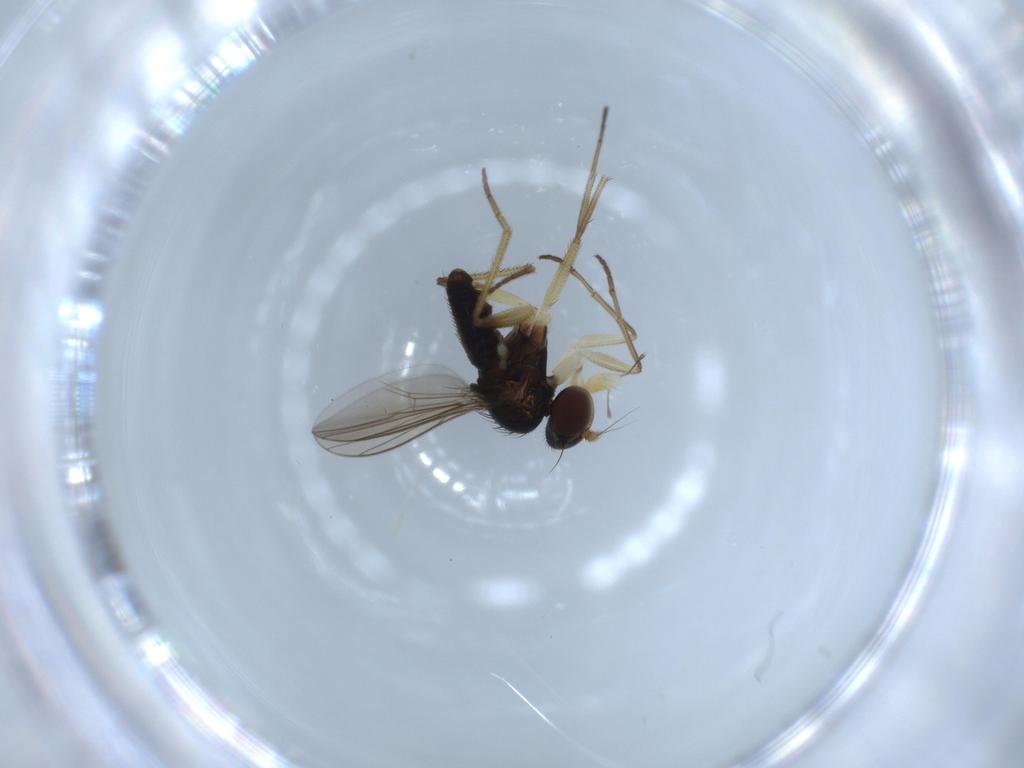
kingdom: Animalia
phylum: Arthropoda
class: Insecta
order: Diptera
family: Dolichopodidae
